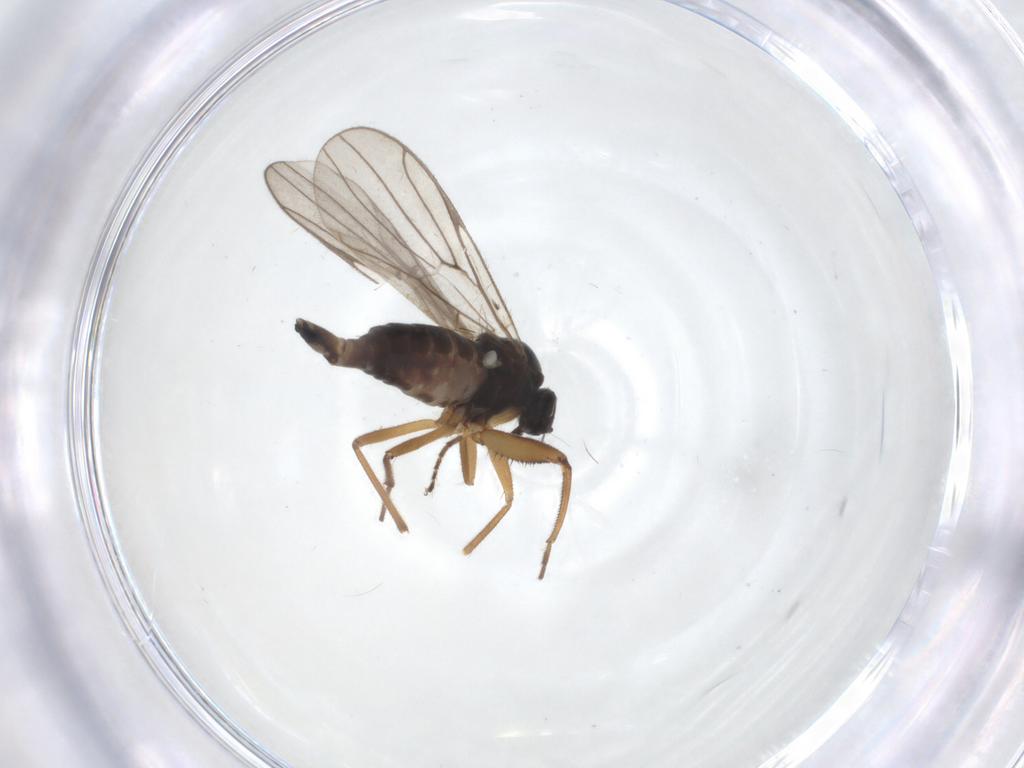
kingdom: Animalia
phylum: Arthropoda
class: Insecta
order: Diptera
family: Hybotidae
